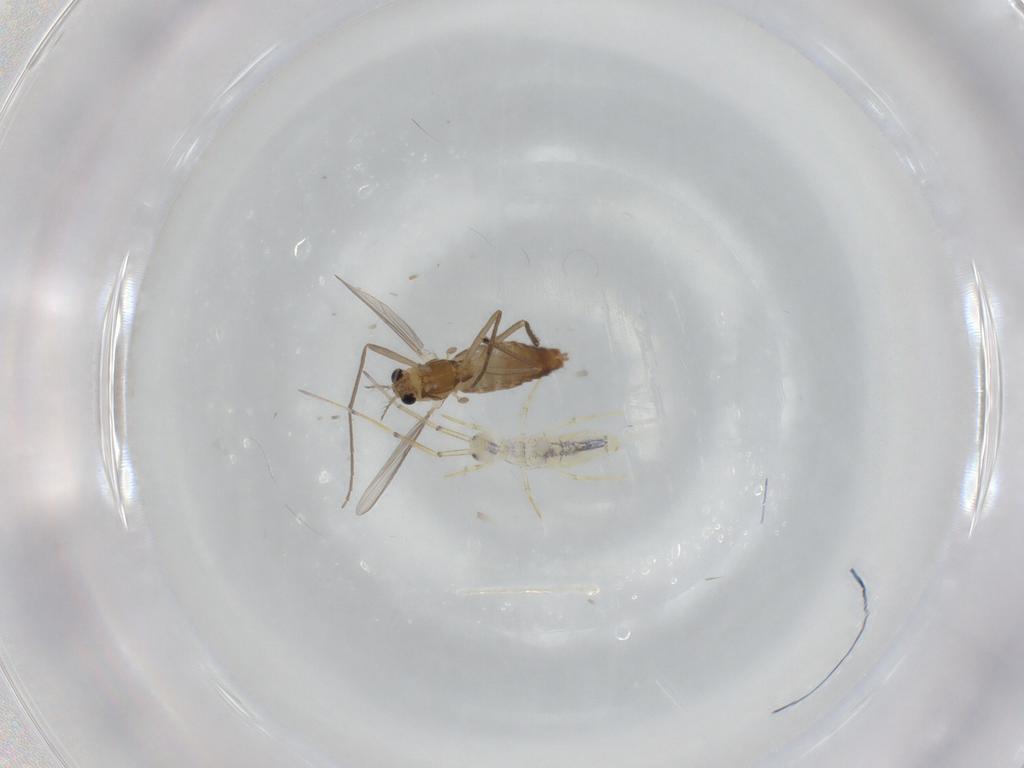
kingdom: Animalia
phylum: Arthropoda
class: Insecta
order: Diptera
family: Chironomidae
